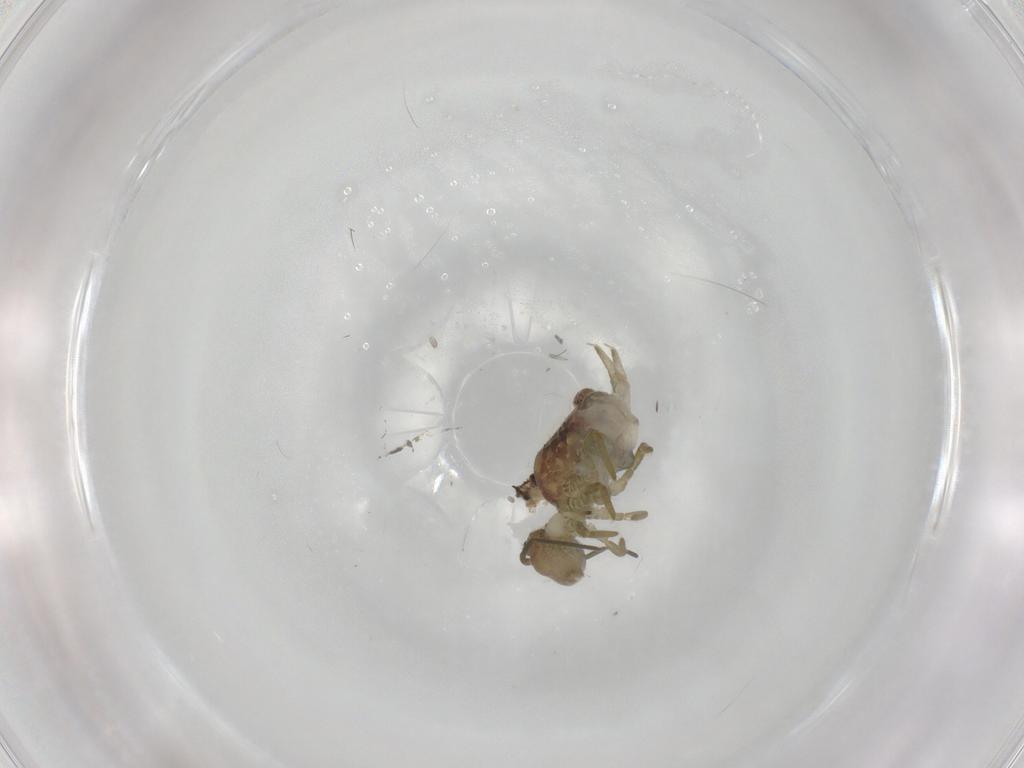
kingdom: Animalia
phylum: Arthropoda
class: Collembola
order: Symphypleona
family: Sminthuridae
